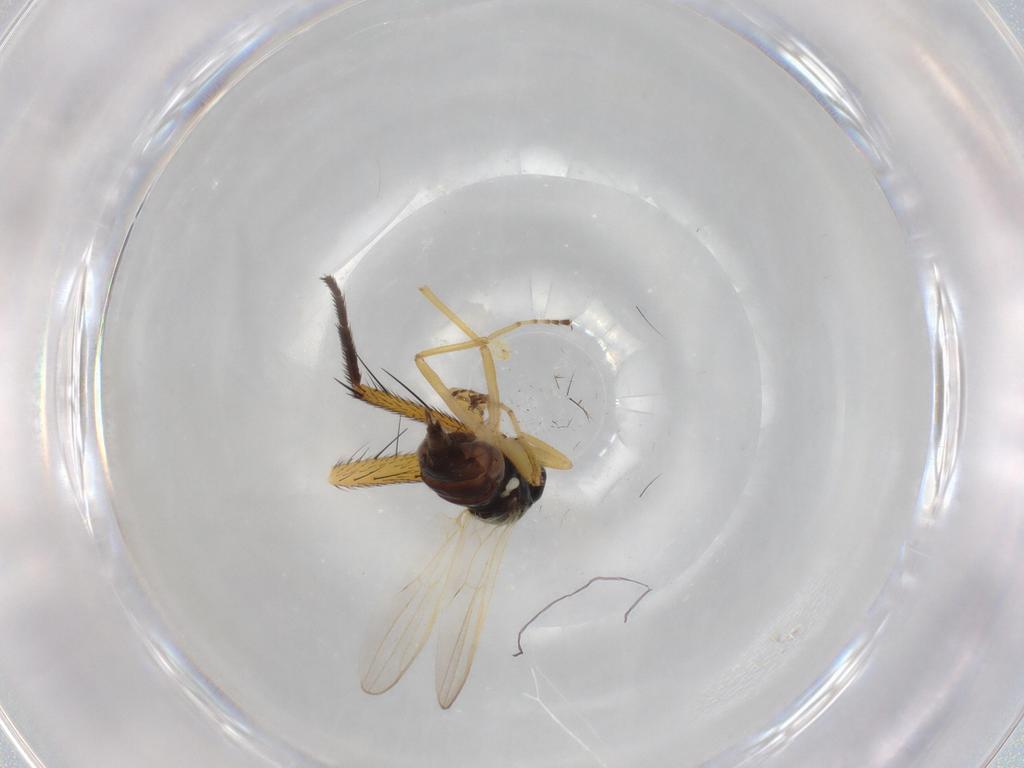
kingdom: Animalia
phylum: Arthropoda
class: Insecta
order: Diptera
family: Hybotidae
